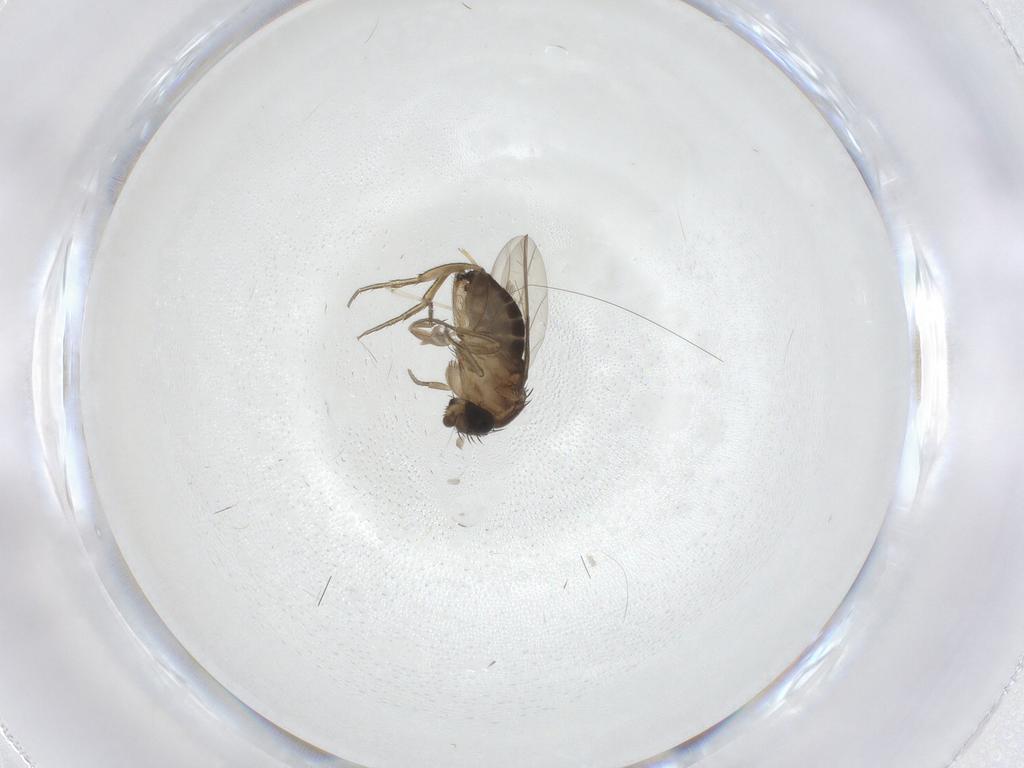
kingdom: Animalia
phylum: Arthropoda
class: Insecta
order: Diptera
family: Phoridae
